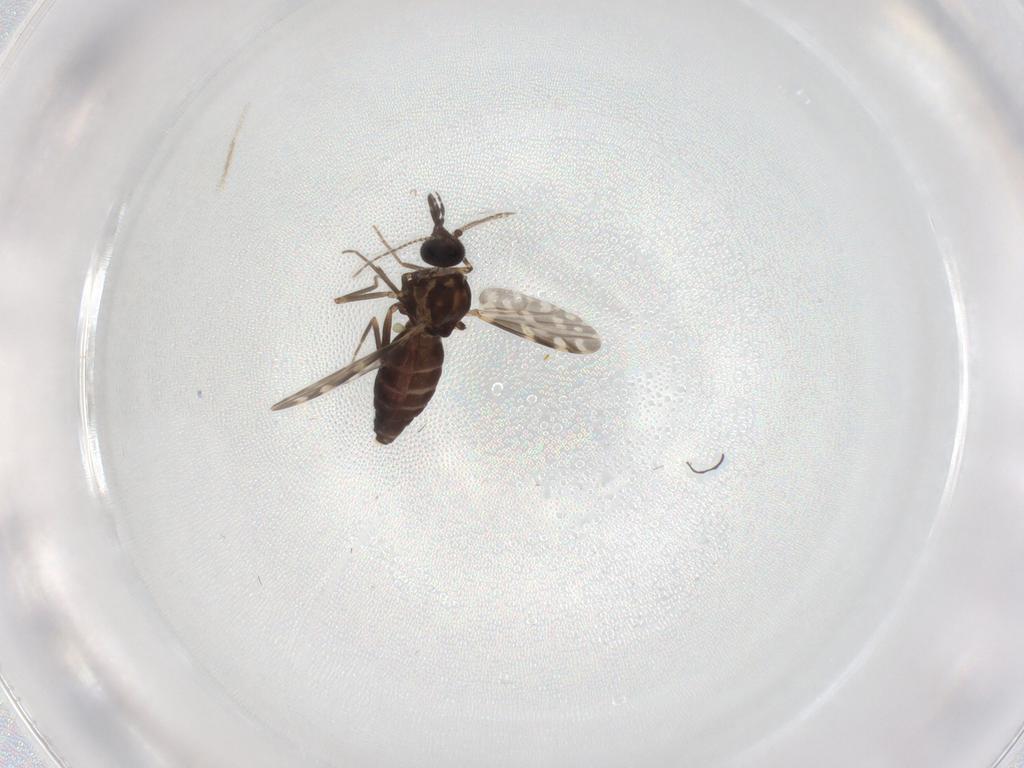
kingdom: Animalia
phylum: Arthropoda
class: Insecta
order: Diptera
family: Ceratopogonidae
